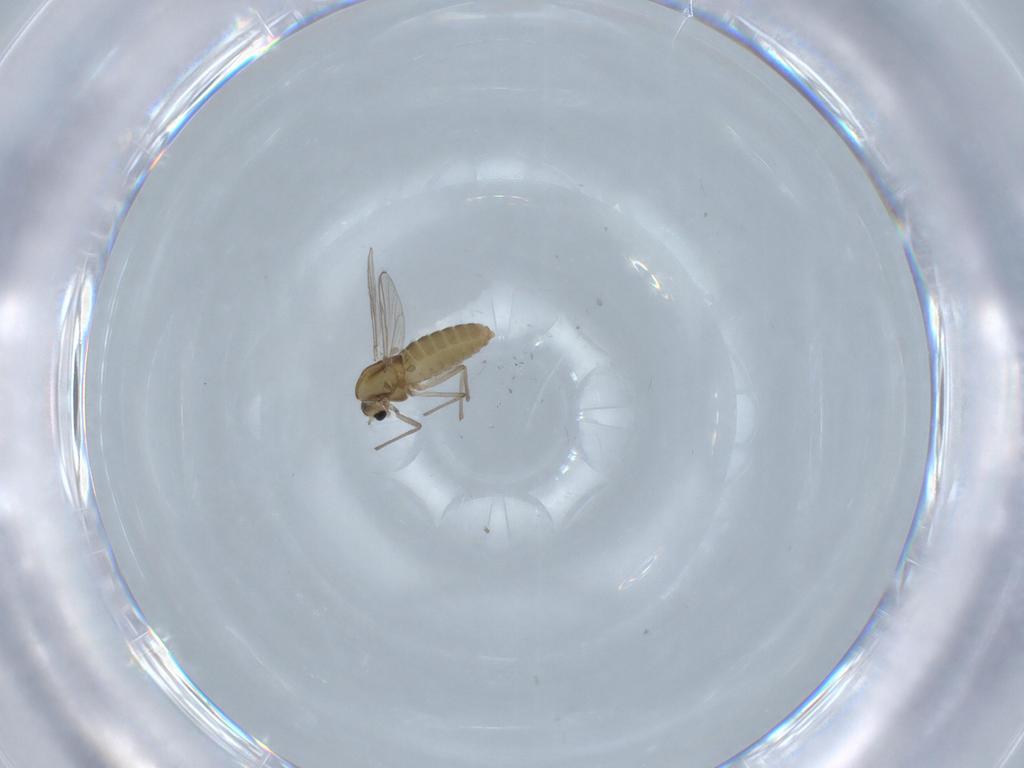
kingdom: Animalia
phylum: Arthropoda
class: Insecta
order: Diptera
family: Chironomidae
